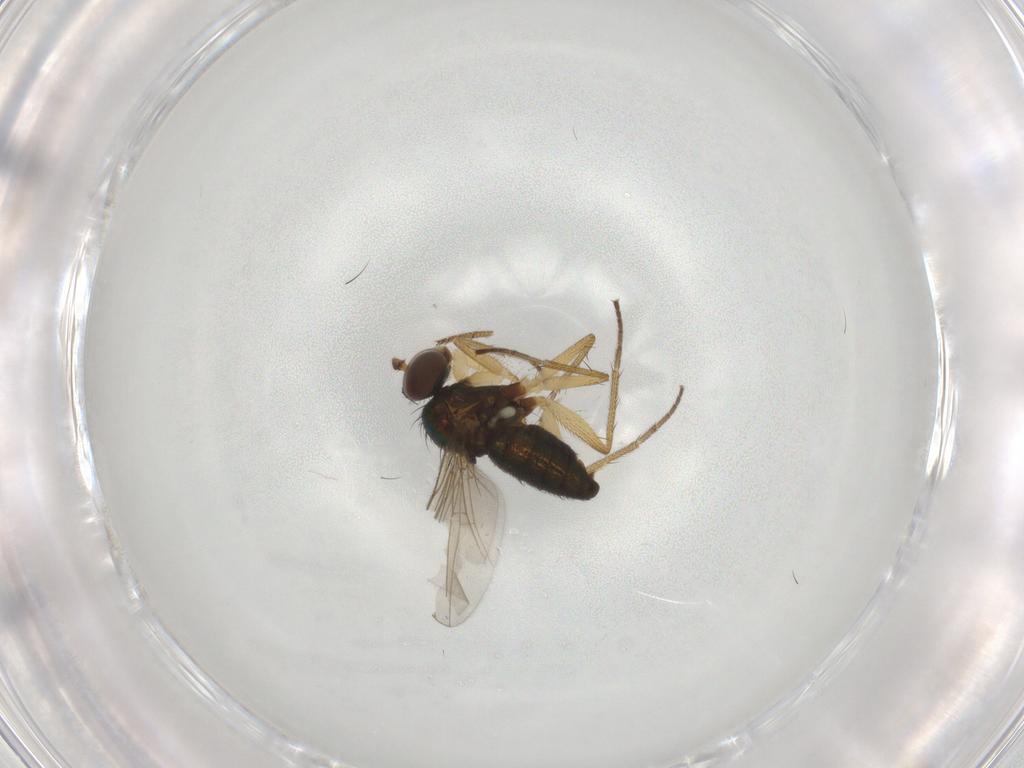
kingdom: Animalia
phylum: Arthropoda
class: Insecta
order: Diptera
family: Dolichopodidae
